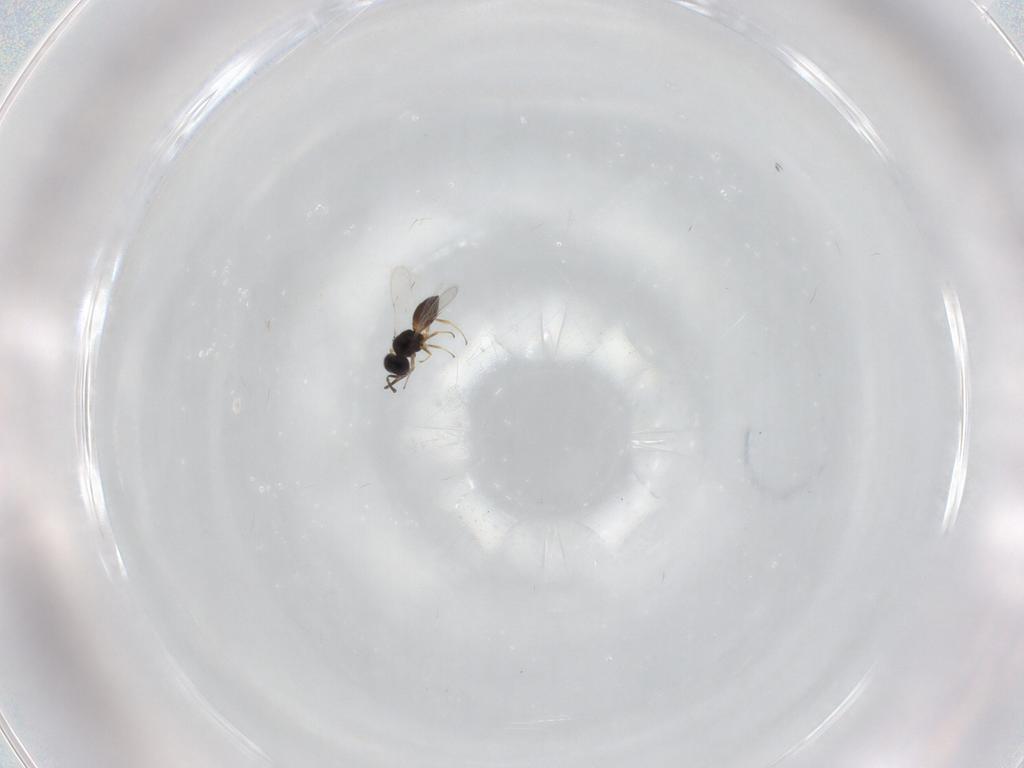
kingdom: Animalia
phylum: Arthropoda
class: Insecta
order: Hymenoptera
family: Scelionidae
